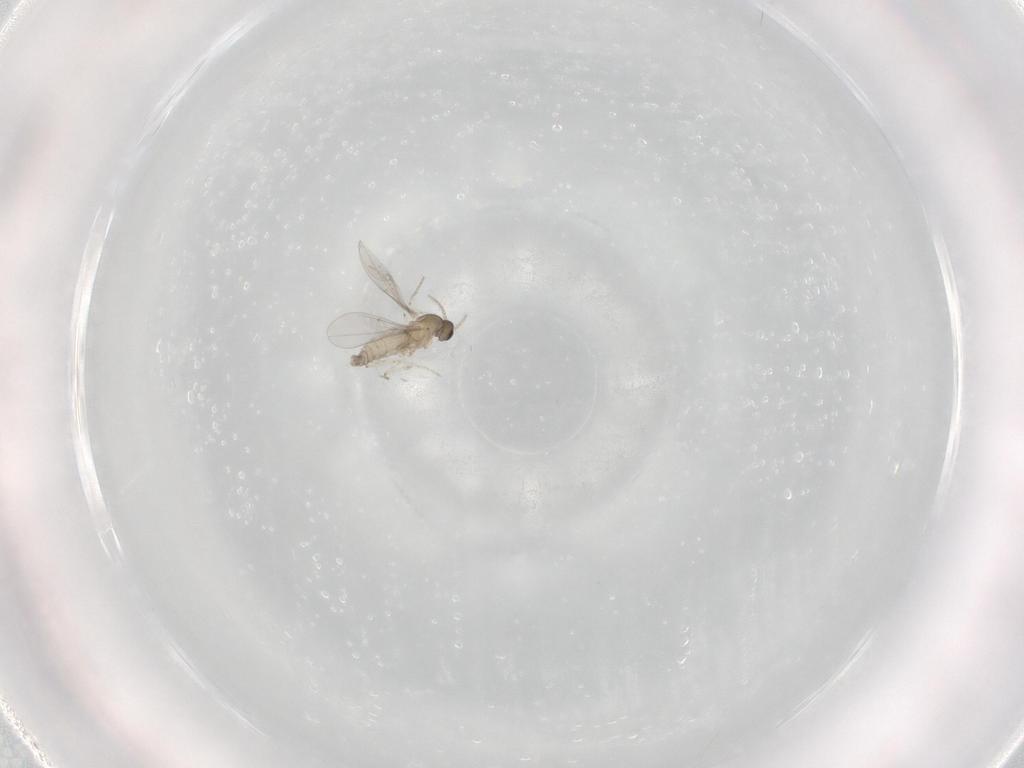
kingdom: Animalia
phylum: Arthropoda
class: Insecta
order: Diptera
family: Cecidomyiidae
